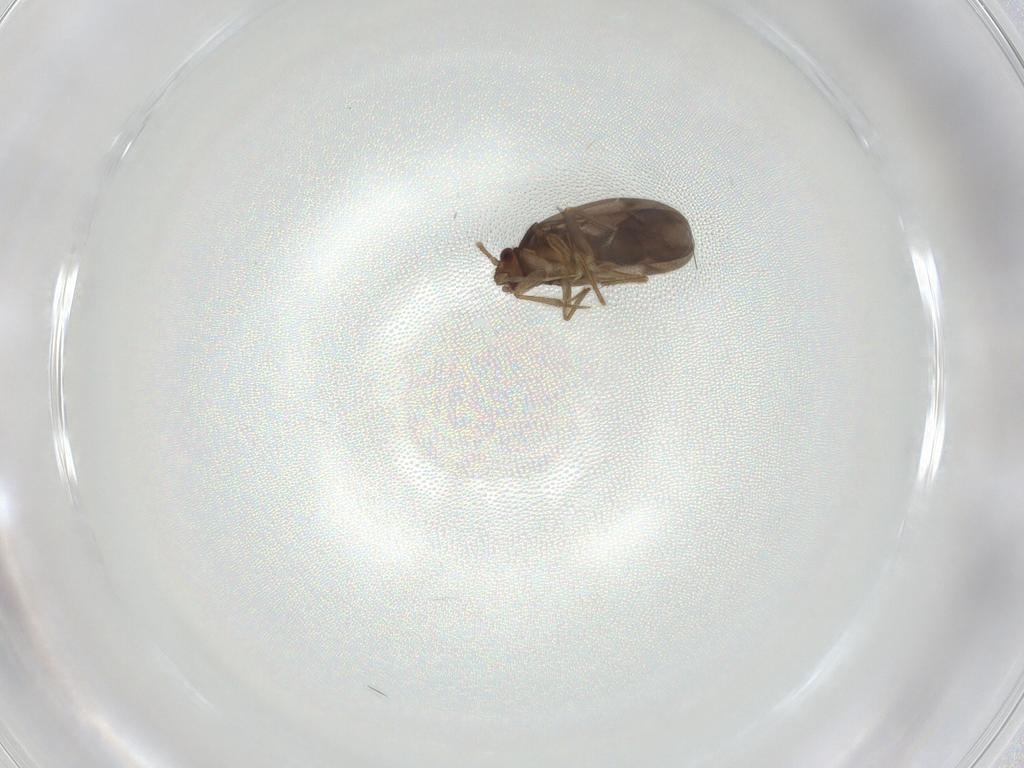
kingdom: Animalia
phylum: Arthropoda
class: Insecta
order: Hemiptera
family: Ceratocombidae
